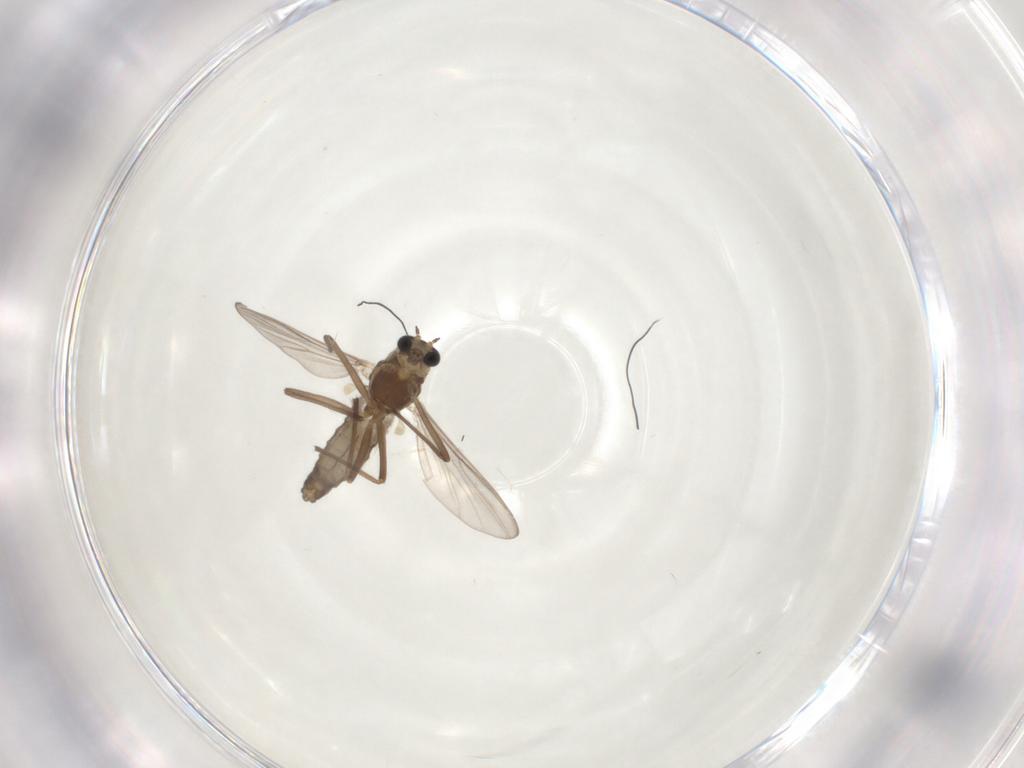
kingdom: Animalia
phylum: Arthropoda
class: Insecta
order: Diptera
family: Chironomidae
